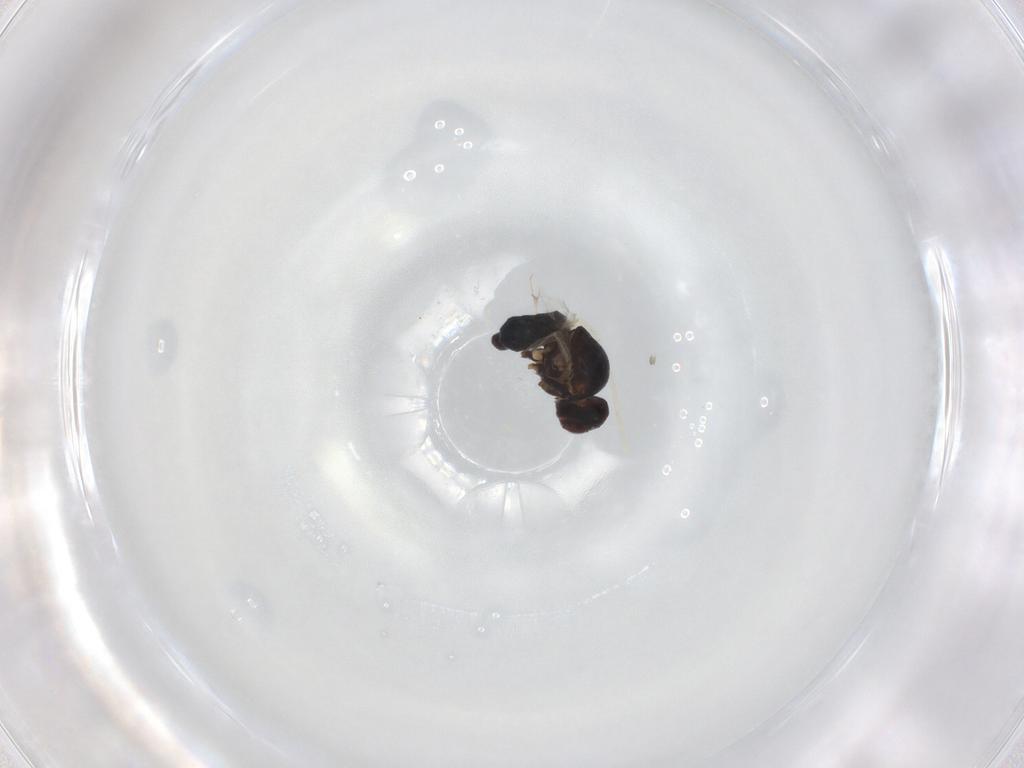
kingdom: Animalia
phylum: Arthropoda
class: Insecta
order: Diptera
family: Agromyzidae
